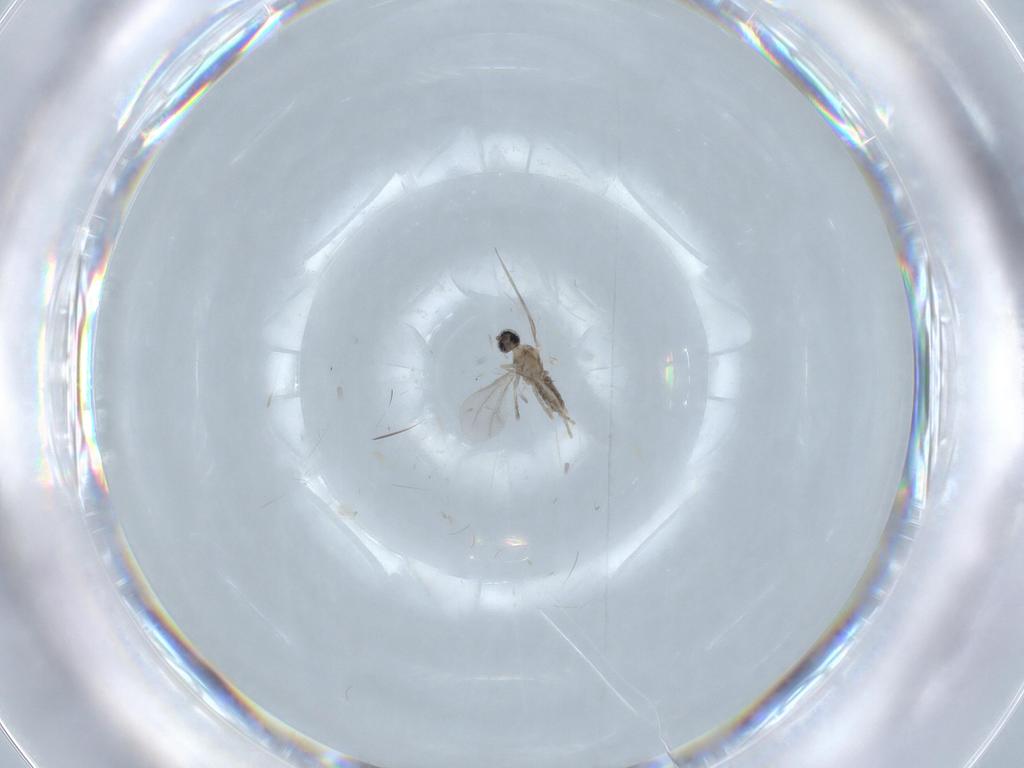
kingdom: Animalia
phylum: Arthropoda
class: Insecta
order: Diptera
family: Cecidomyiidae
